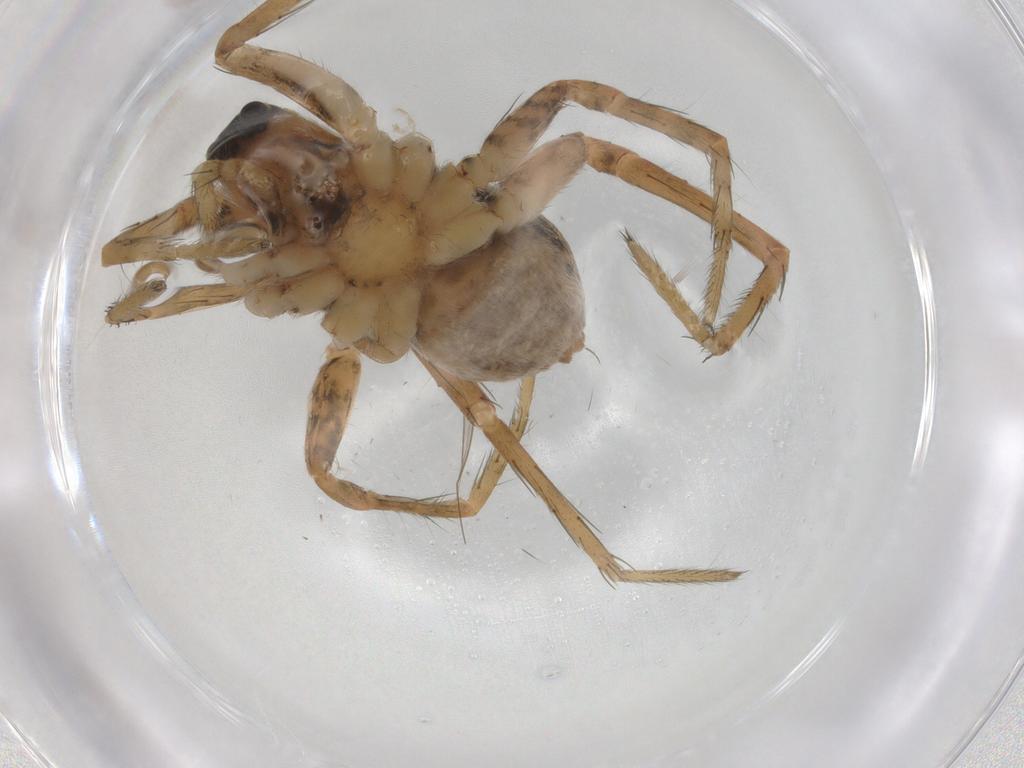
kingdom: Animalia
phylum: Arthropoda
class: Arachnida
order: Araneae
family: Lycosidae
